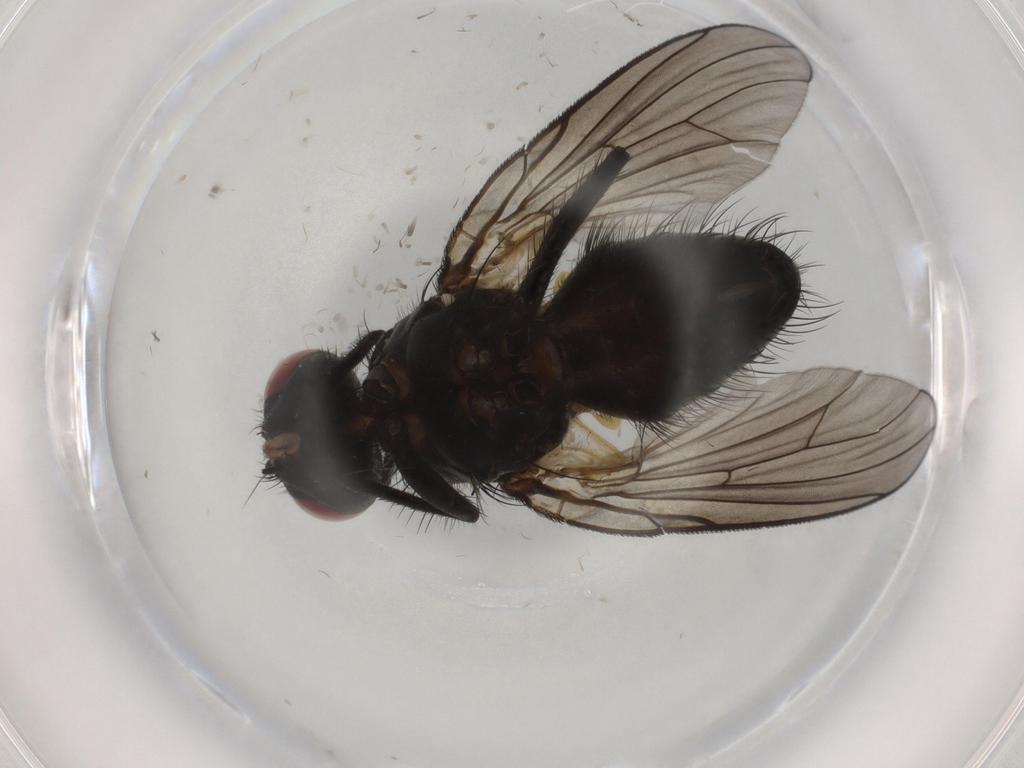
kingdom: Animalia
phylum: Arthropoda
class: Insecta
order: Diptera
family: Muscidae
